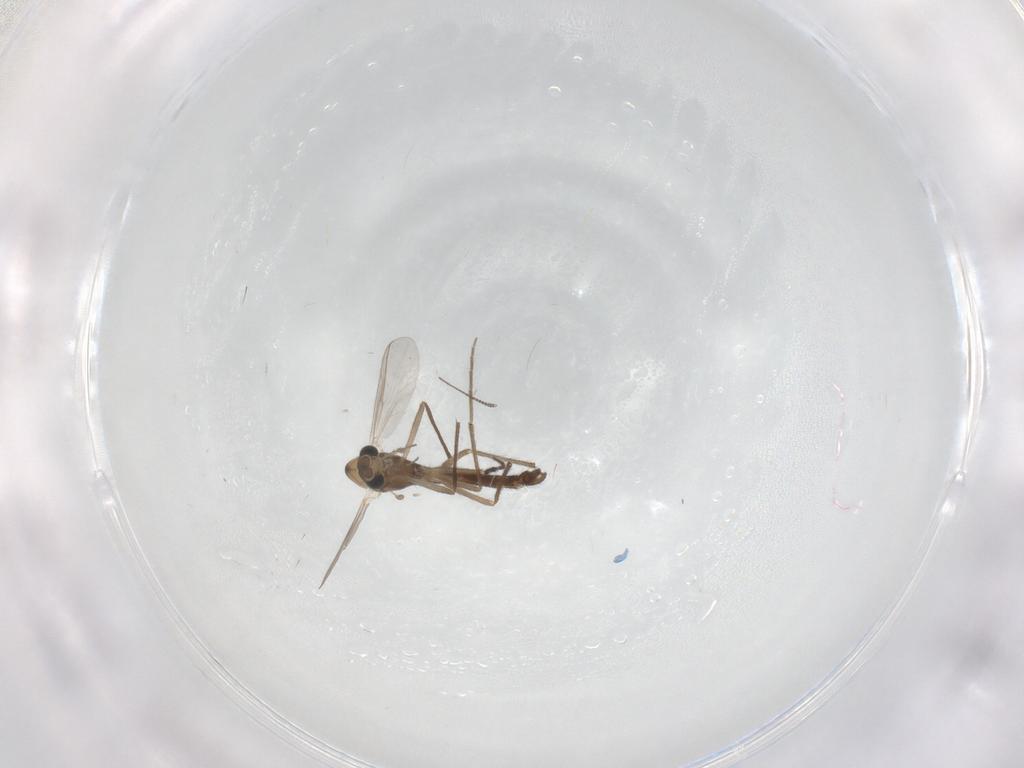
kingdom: Animalia
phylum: Arthropoda
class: Insecta
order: Diptera
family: Chironomidae
